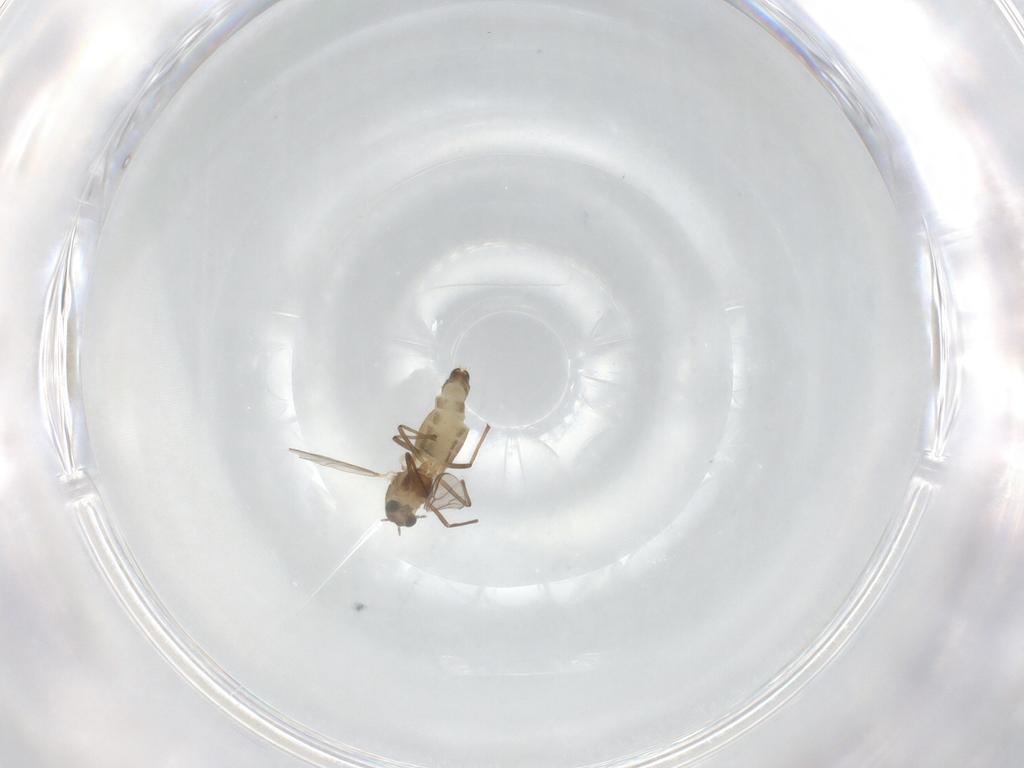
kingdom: Animalia
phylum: Arthropoda
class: Insecta
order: Diptera
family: Chironomidae
